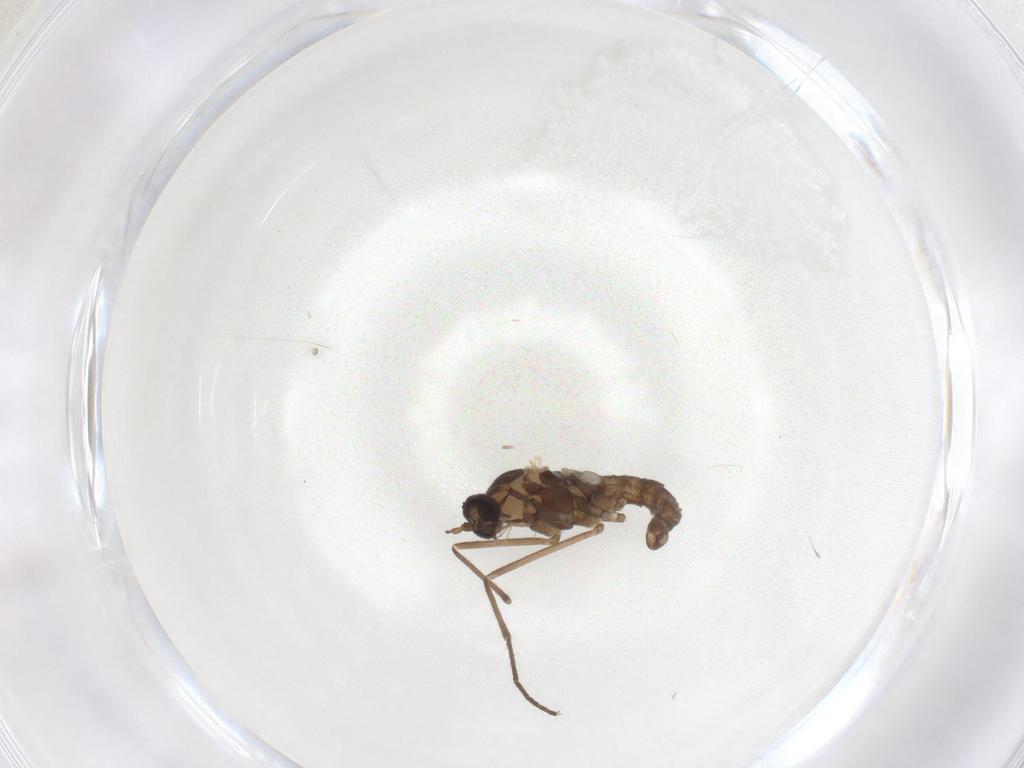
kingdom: Animalia
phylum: Arthropoda
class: Insecta
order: Diptera
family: Cecidomyiidae
